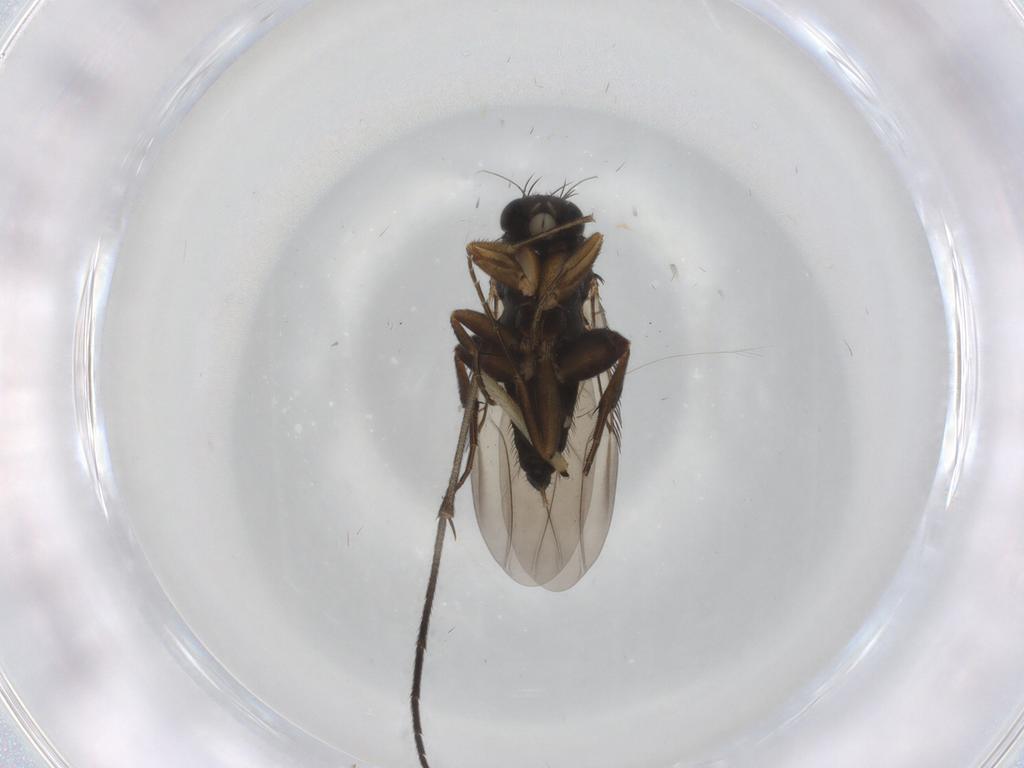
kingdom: Animalia
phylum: Arthropoda
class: Insecta
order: Diptera
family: Phoridae
